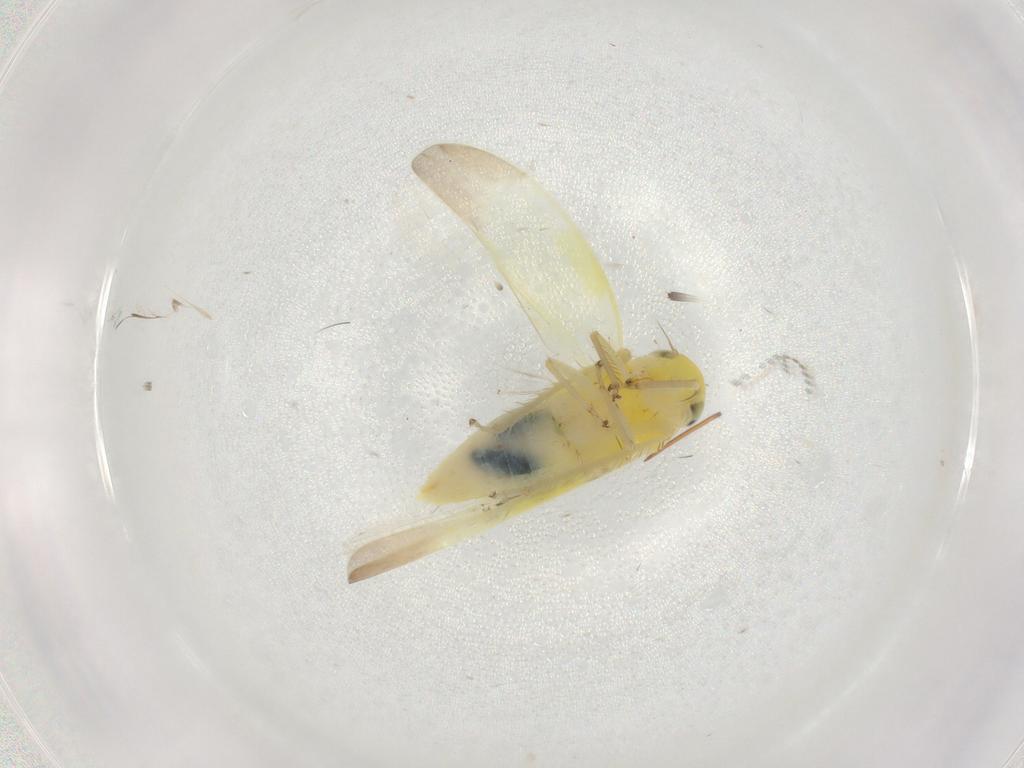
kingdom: Animalia
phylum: Arthropoda
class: Insecta
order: Hemiptera
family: Cicadellidae
